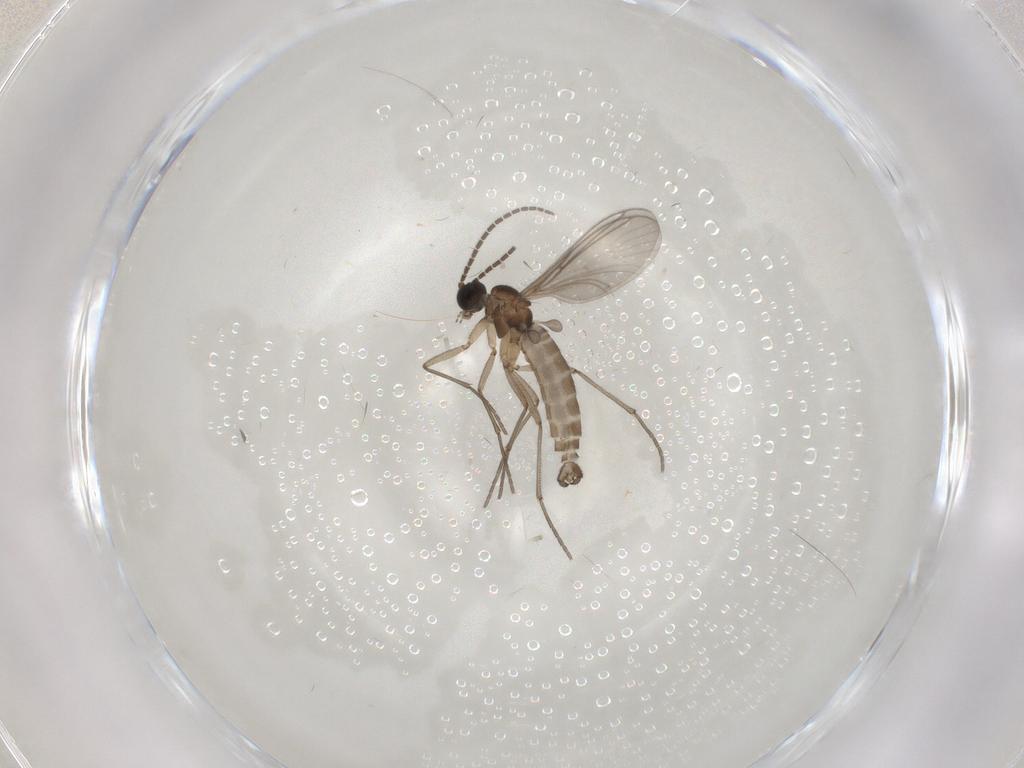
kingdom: Animalia
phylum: Arthropoda
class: Insecta
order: Diptera
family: Sciaridae
